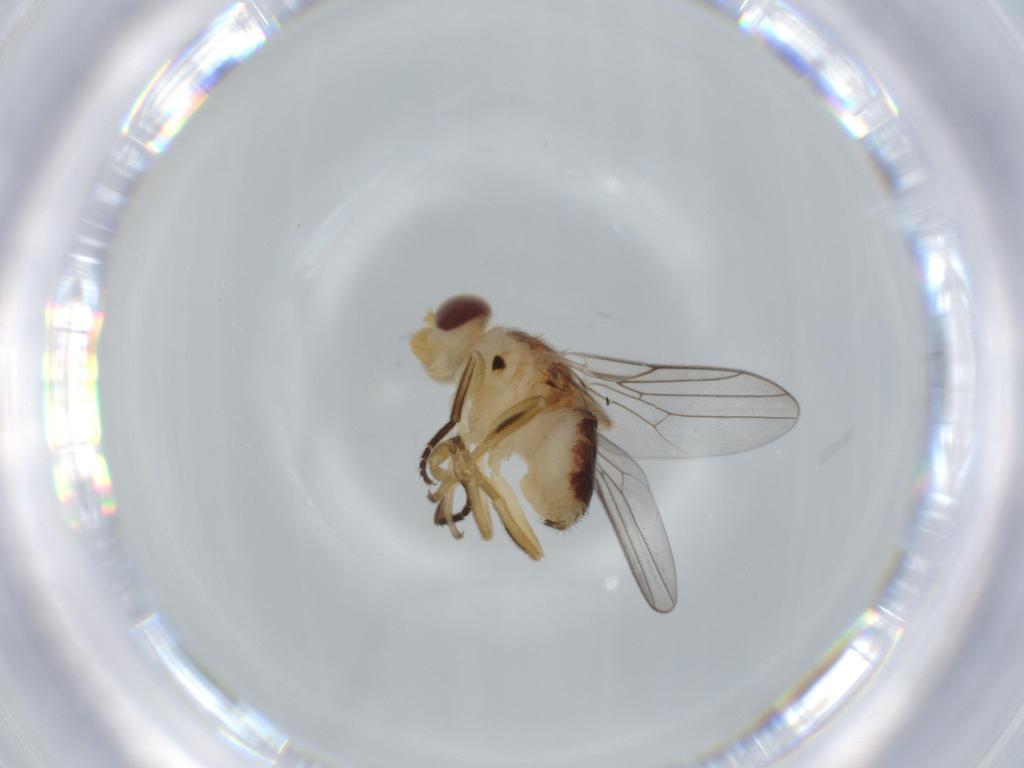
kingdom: Animalia
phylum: Arthropoda
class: Insecta
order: Diptera
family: Chloropidae
